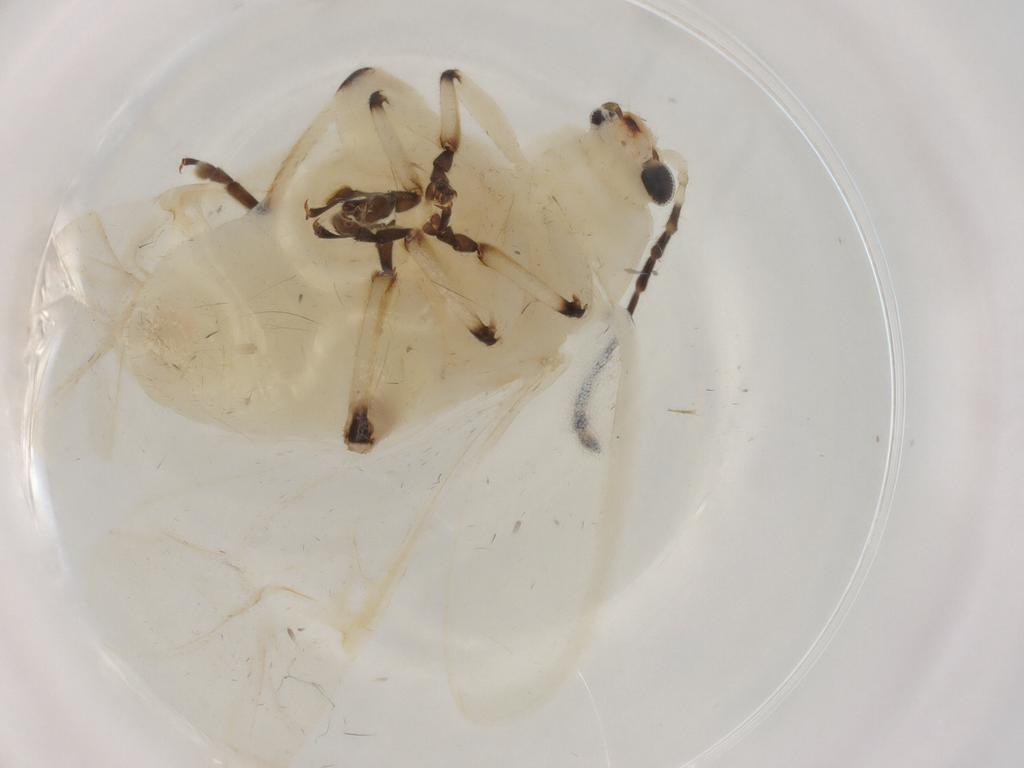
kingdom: Animalia
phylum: Arthropoda
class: Insecta
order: Coleoptera
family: Chrysomelidae
